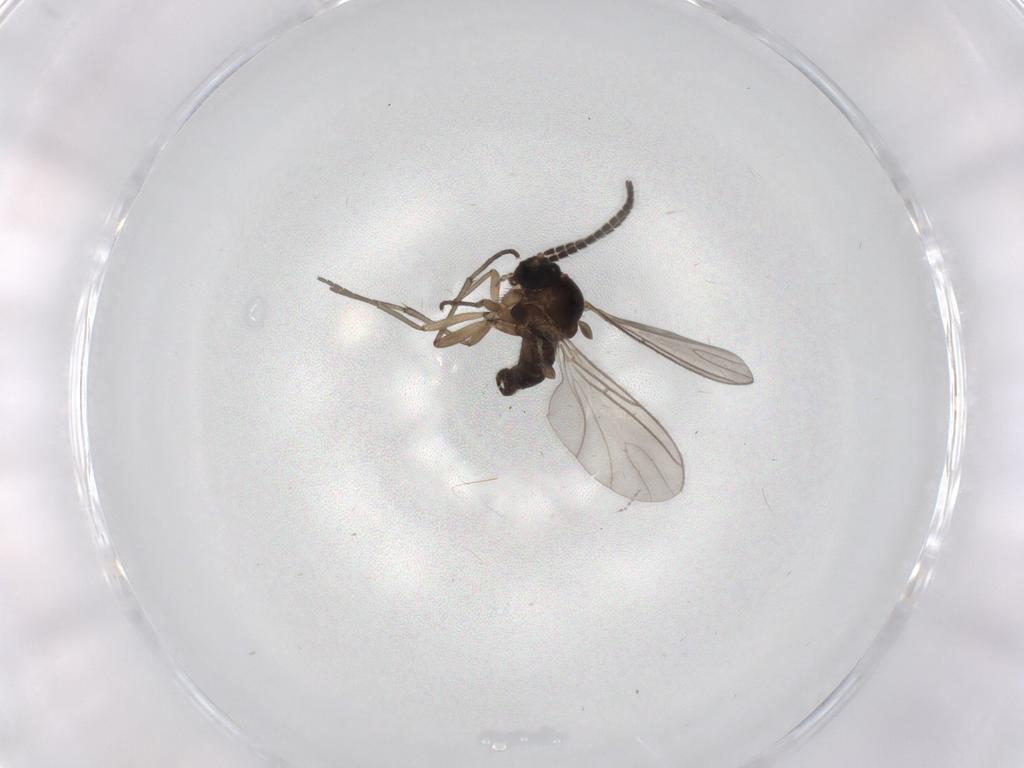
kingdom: Animalia
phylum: Arthropoda
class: Insecta
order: Diptera
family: Sciaridae
